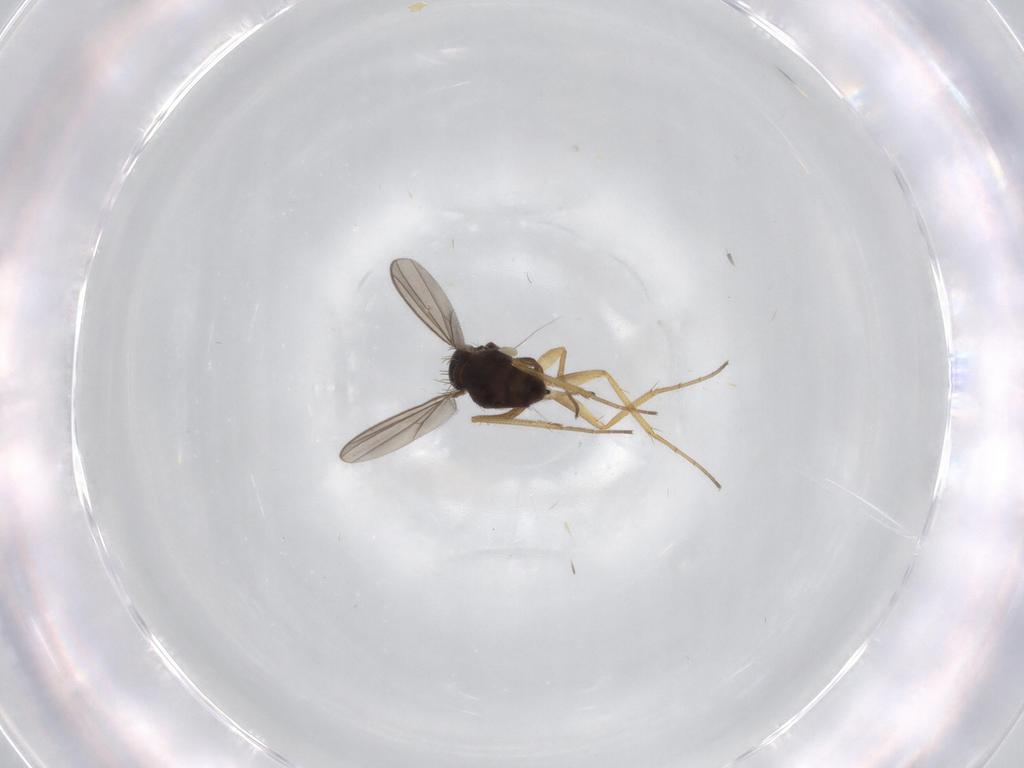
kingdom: Animalia
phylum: Arthropoda
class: Insecta
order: Diptera
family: Dolichopodidae
